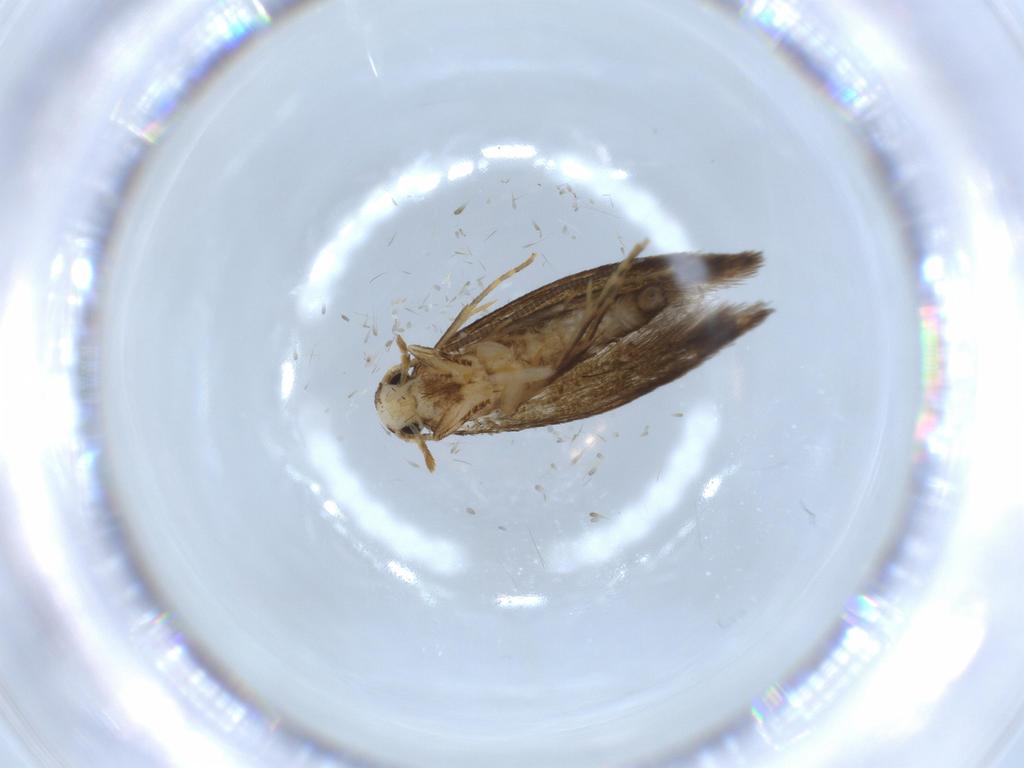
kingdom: Animalia
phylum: Arthropoda
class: Insecta
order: Lepidoptera
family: Tineidae
